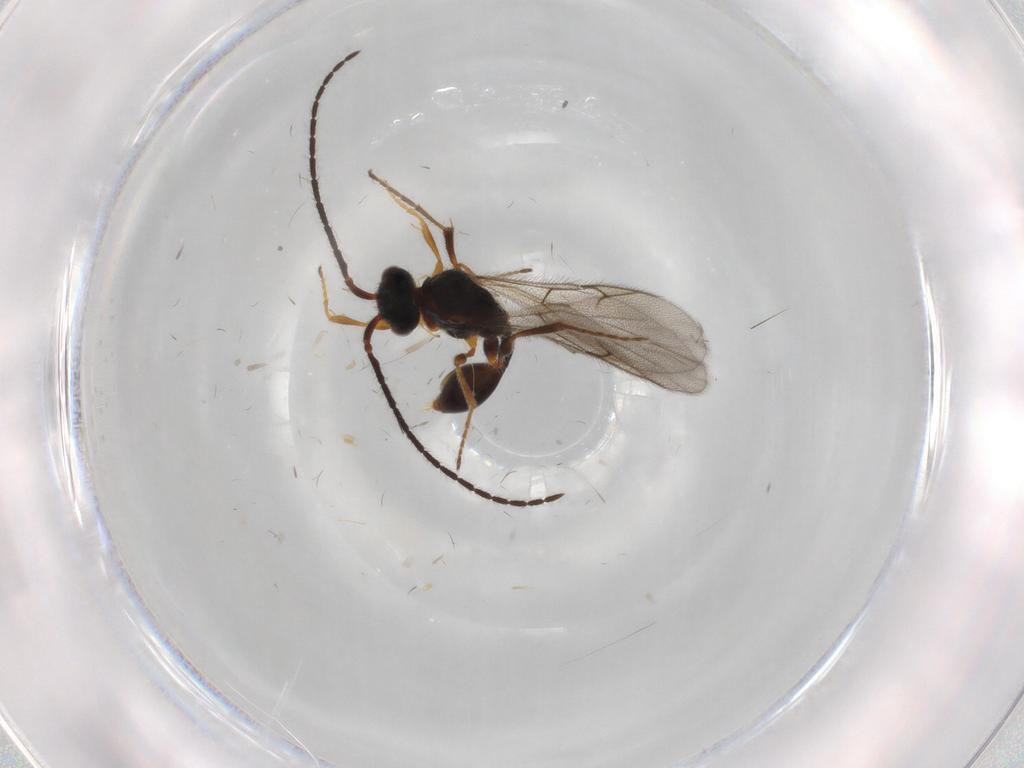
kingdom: Animalia
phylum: Arthropoda
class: Insecta
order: Hymenoptera
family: Diapriidae
